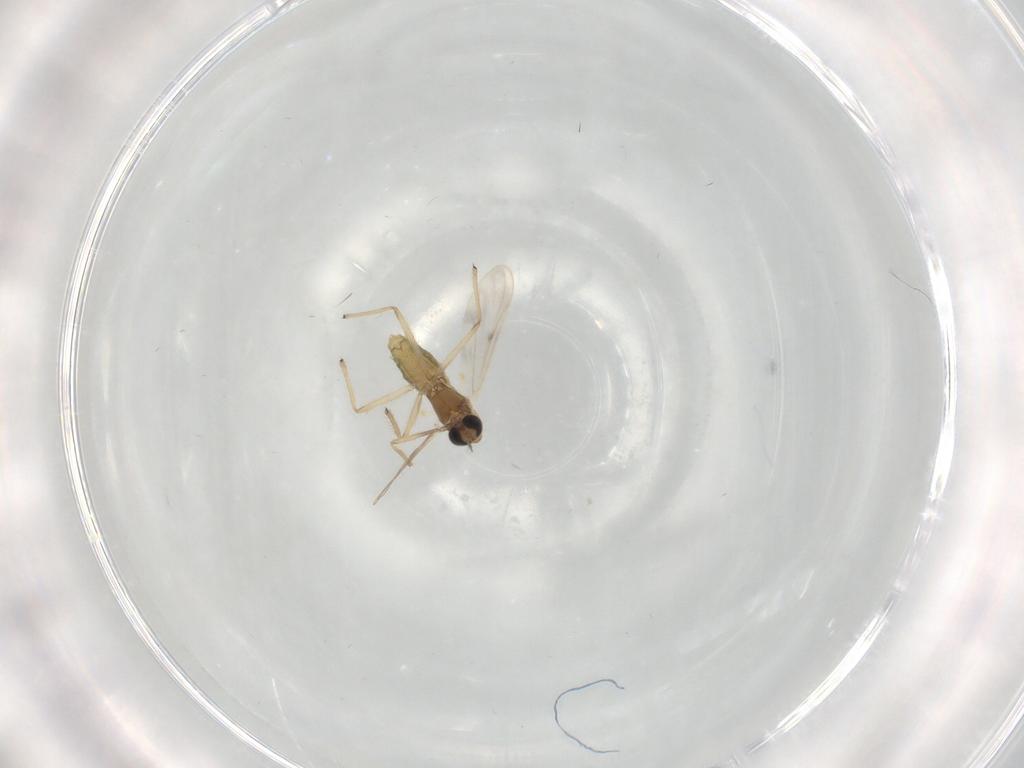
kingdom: Animalia
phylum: Arthropoda
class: Insecta
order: Diptera
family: Chironomidae
